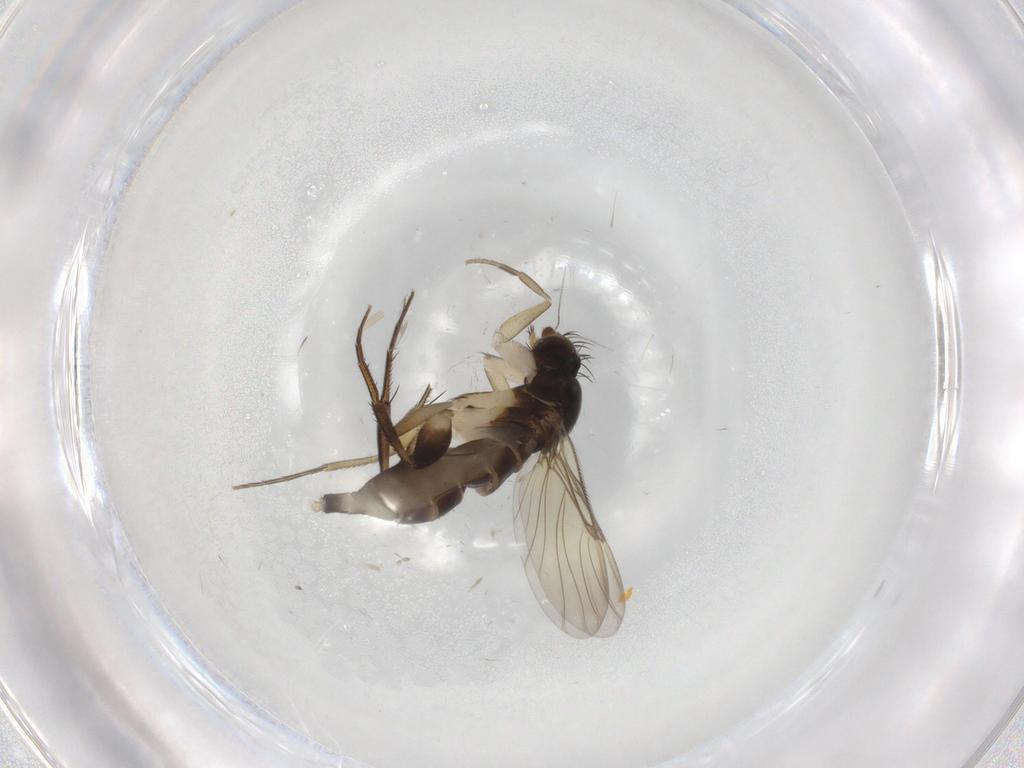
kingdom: Animalia
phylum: Arthropoda
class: Insecta
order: Diptera
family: Phoridae
